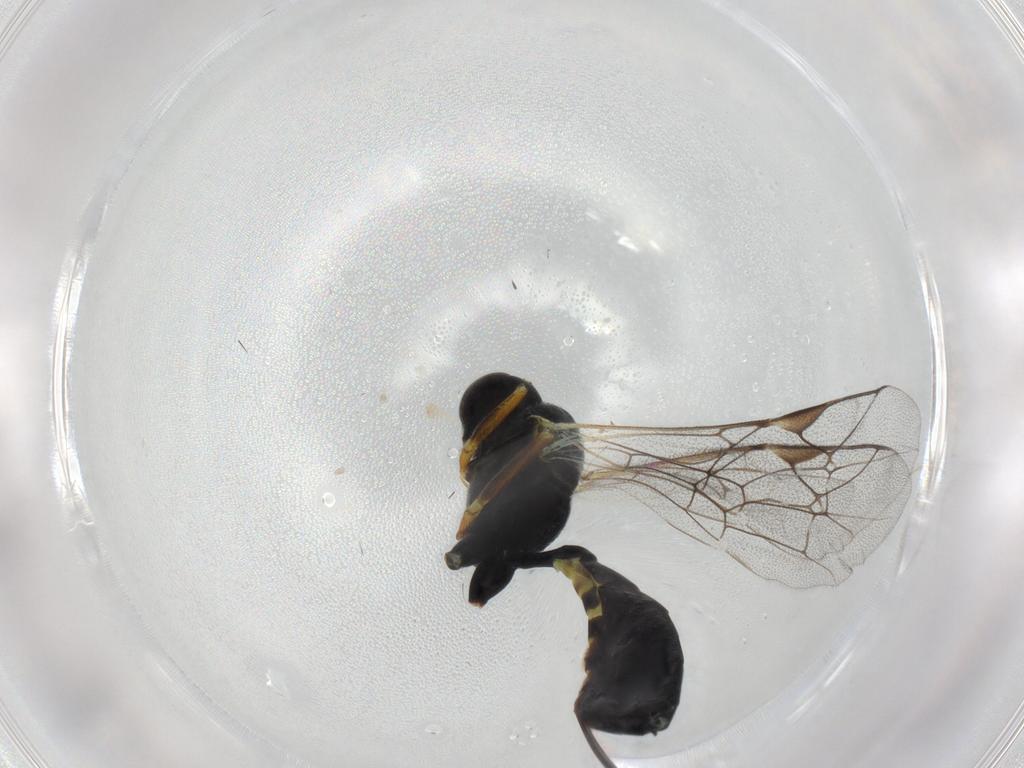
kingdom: Animalia
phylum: Arthropoda
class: Insecta
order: Hymenoptera
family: Ichneumonidae
